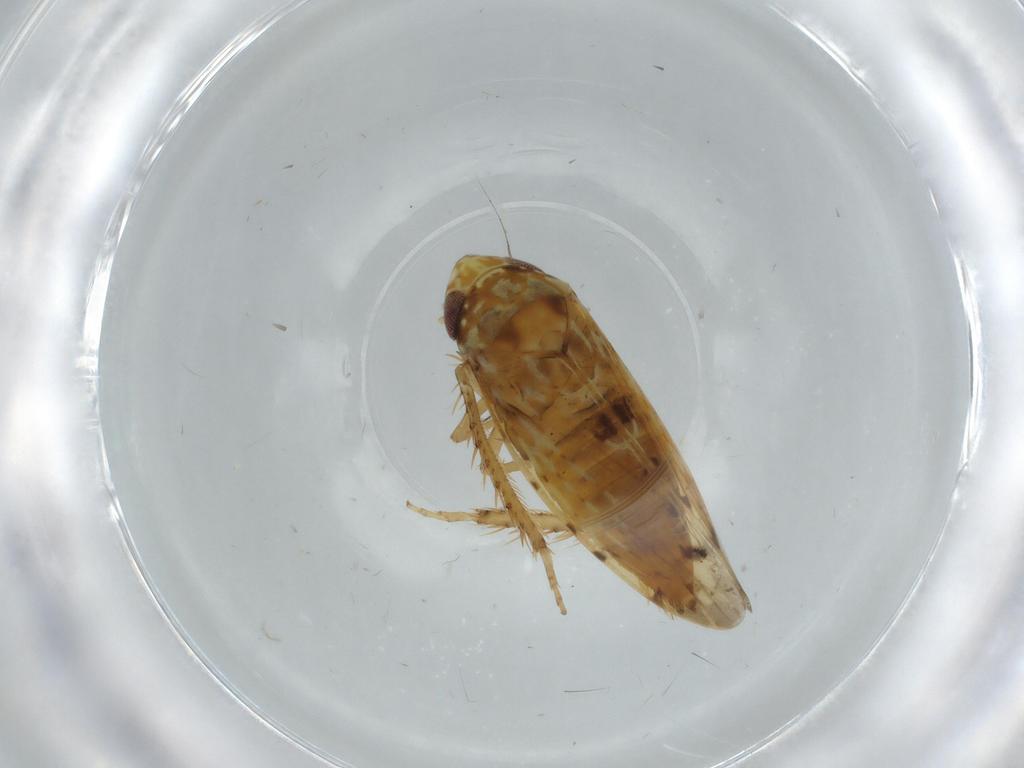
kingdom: Animalia
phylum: Arthropoda
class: Insecta
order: Hemiptera
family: Cicadellidae
